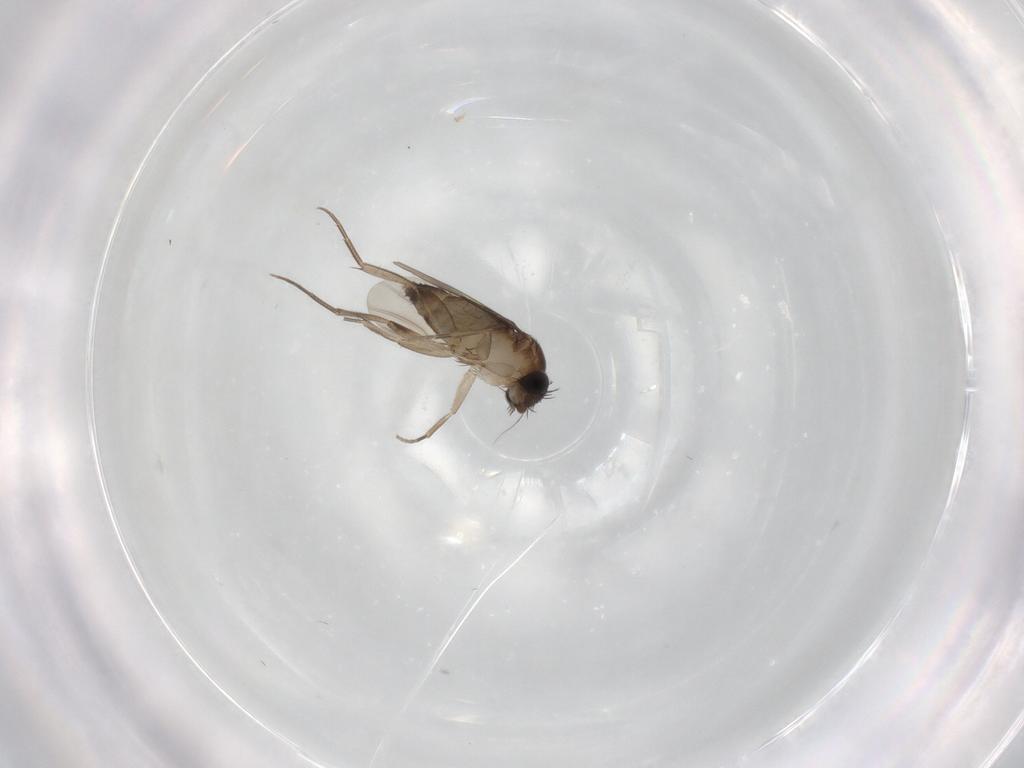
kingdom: Animalia
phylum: Arthropoda
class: Insecta
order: Diptera
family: Phoridae
